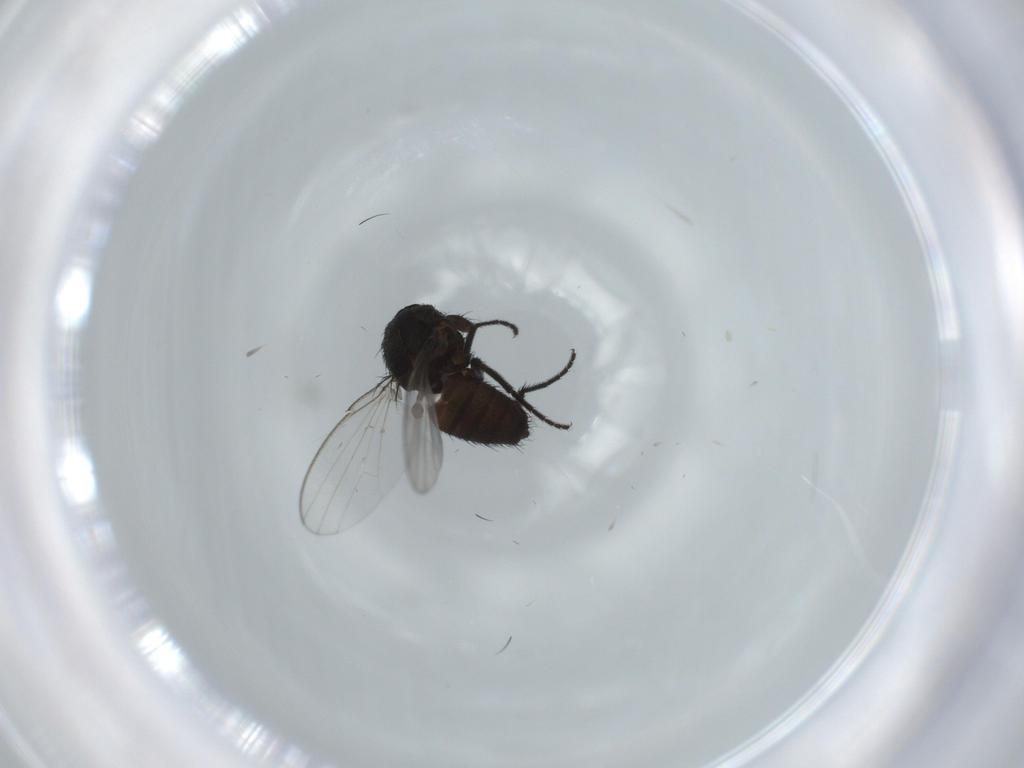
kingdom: Animalia
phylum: Arthropoda
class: Insecta
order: Diptera
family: Milichiidae
